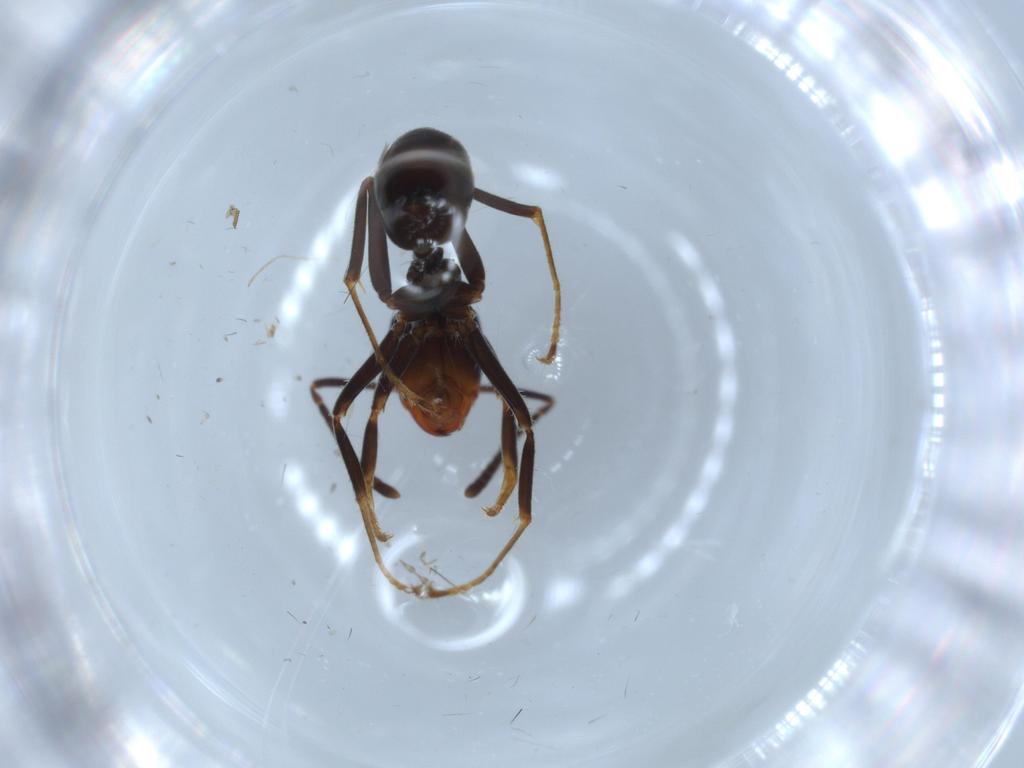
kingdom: Animalia
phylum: Arthropoda
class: Insecta
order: Hymenoptera
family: Formicidae
